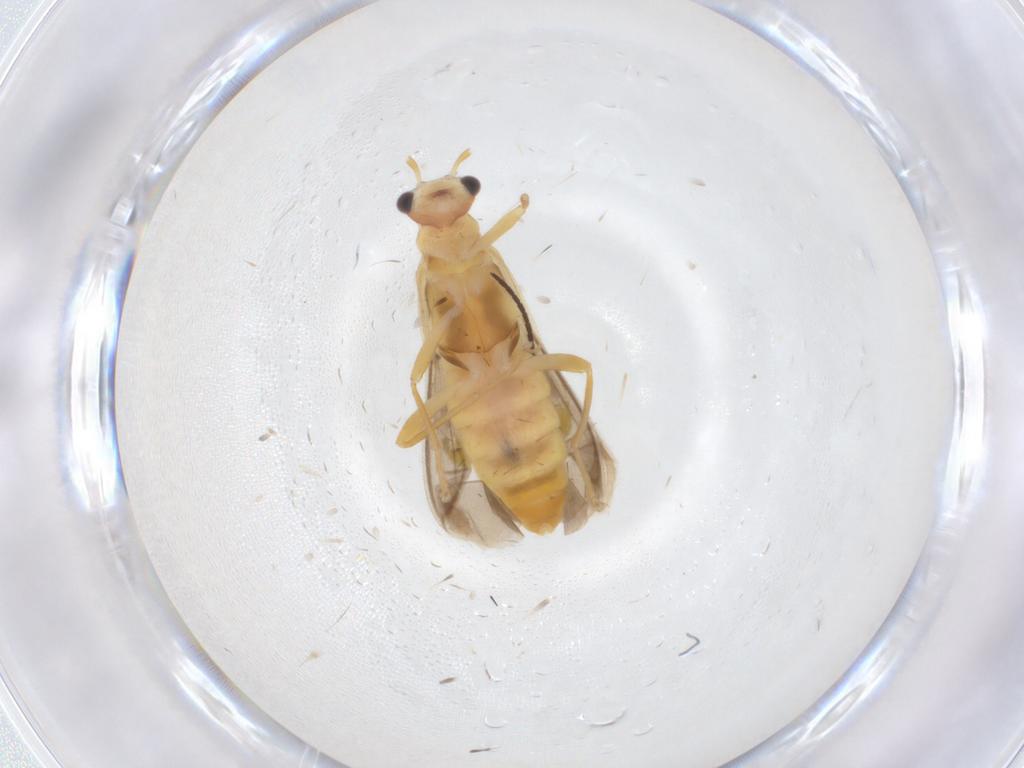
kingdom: Animalia
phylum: Arthropoda
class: Insecta
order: Coleoptera
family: Cantharidae
